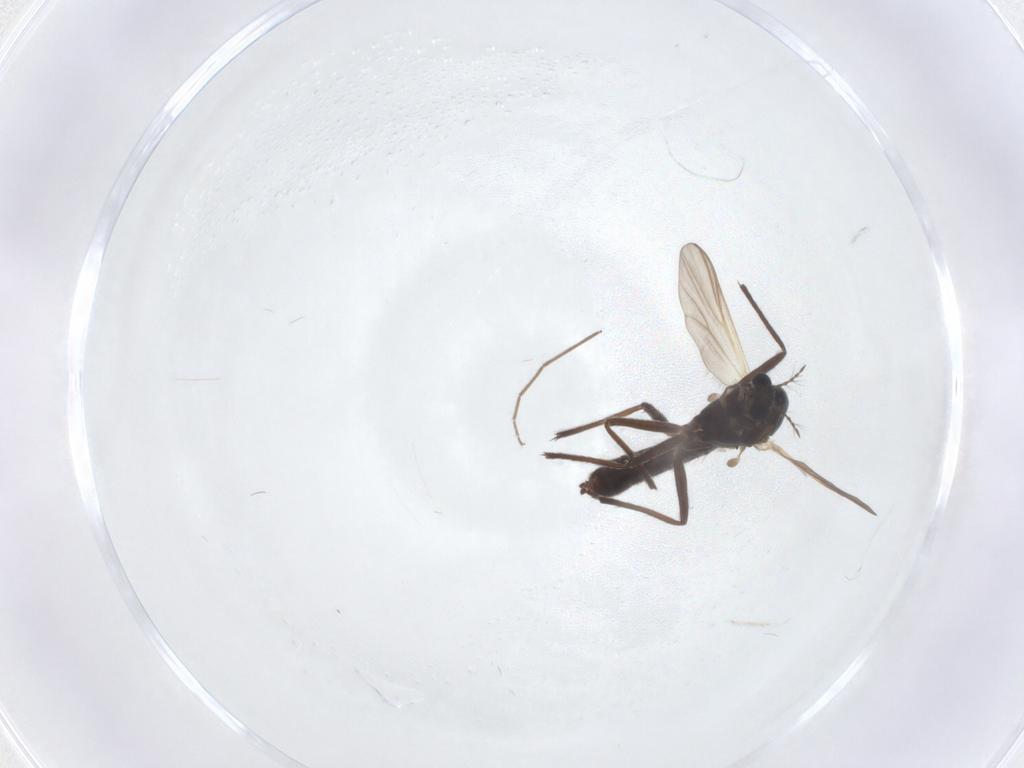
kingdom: Animalia
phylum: Arthropoda
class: Insecta
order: Diptera
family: Chironomidae
